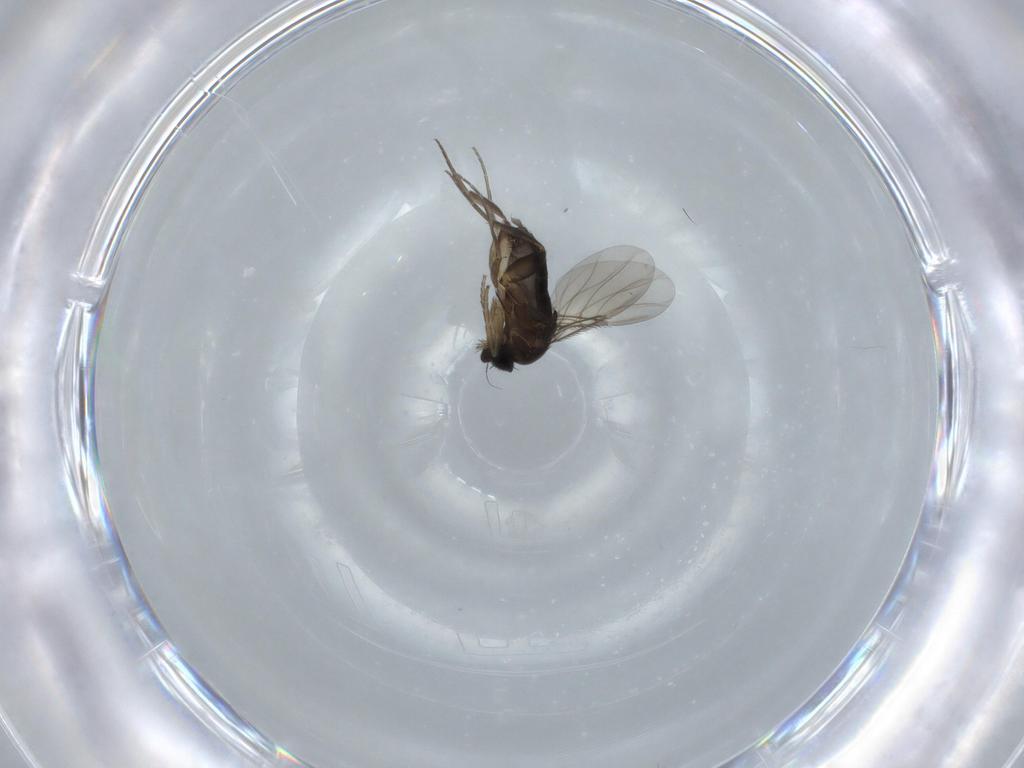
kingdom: Animalia
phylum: Arthropoda
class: Insecta
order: Diptera
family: Phoridae
